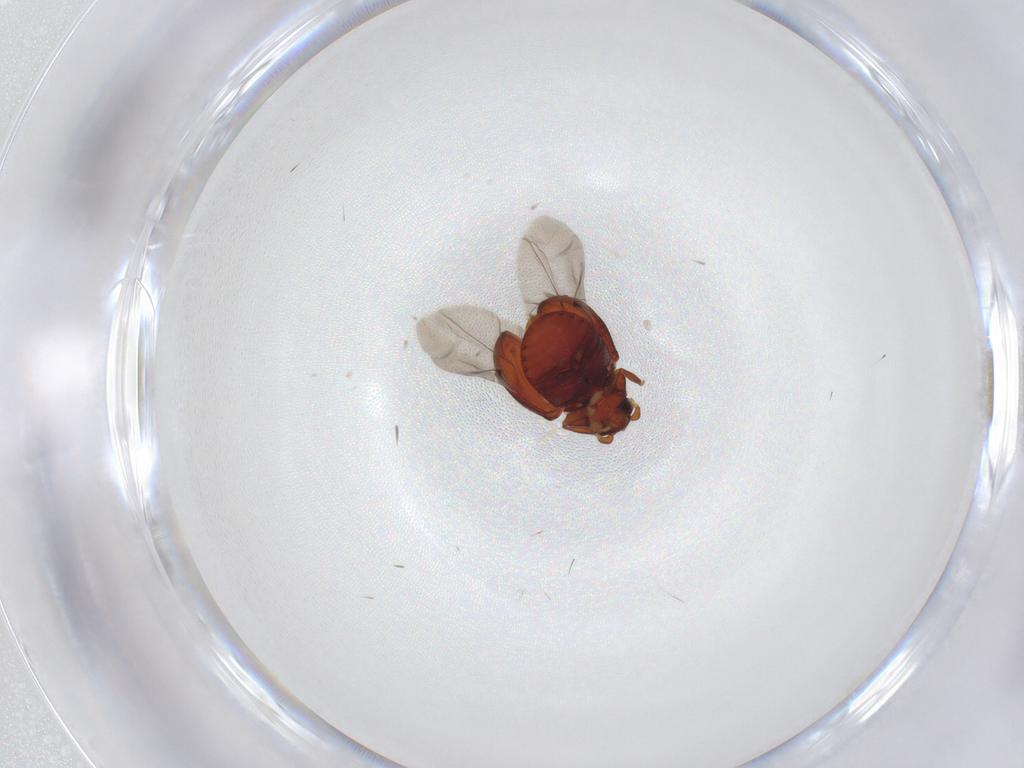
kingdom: Animalia
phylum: Arthropoda
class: Insecta
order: Coleoptera
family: Ptinidae
